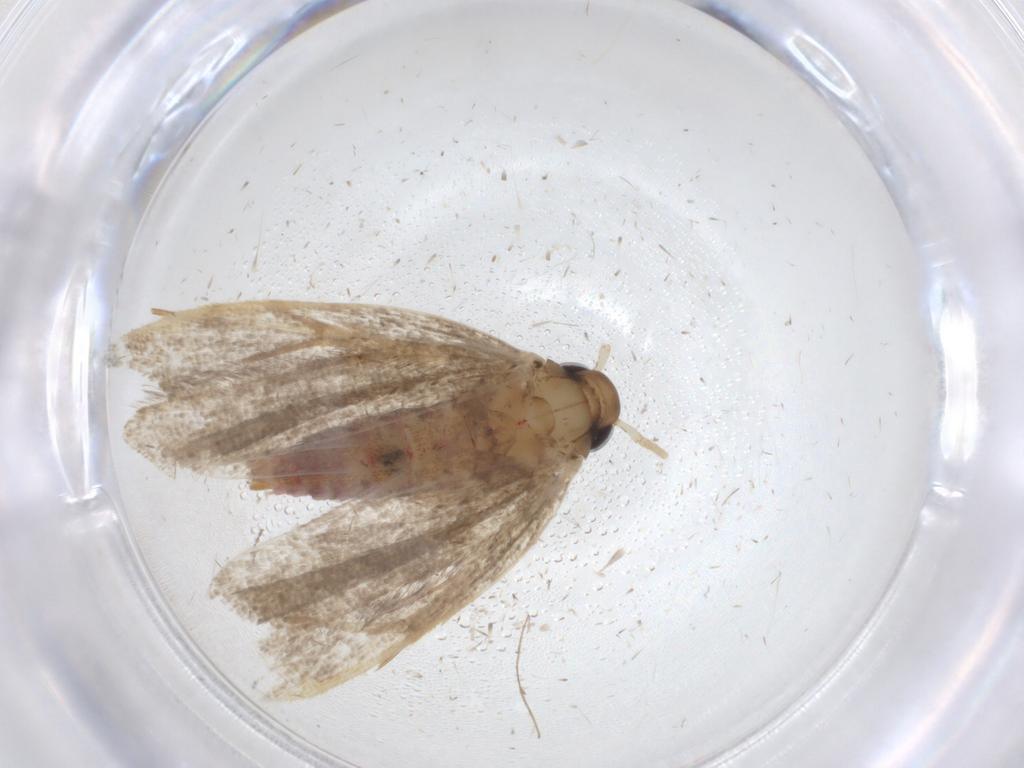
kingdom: Animalia
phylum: Arthropoda
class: Insecta
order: Lepidoptera
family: Lecithoceridae
